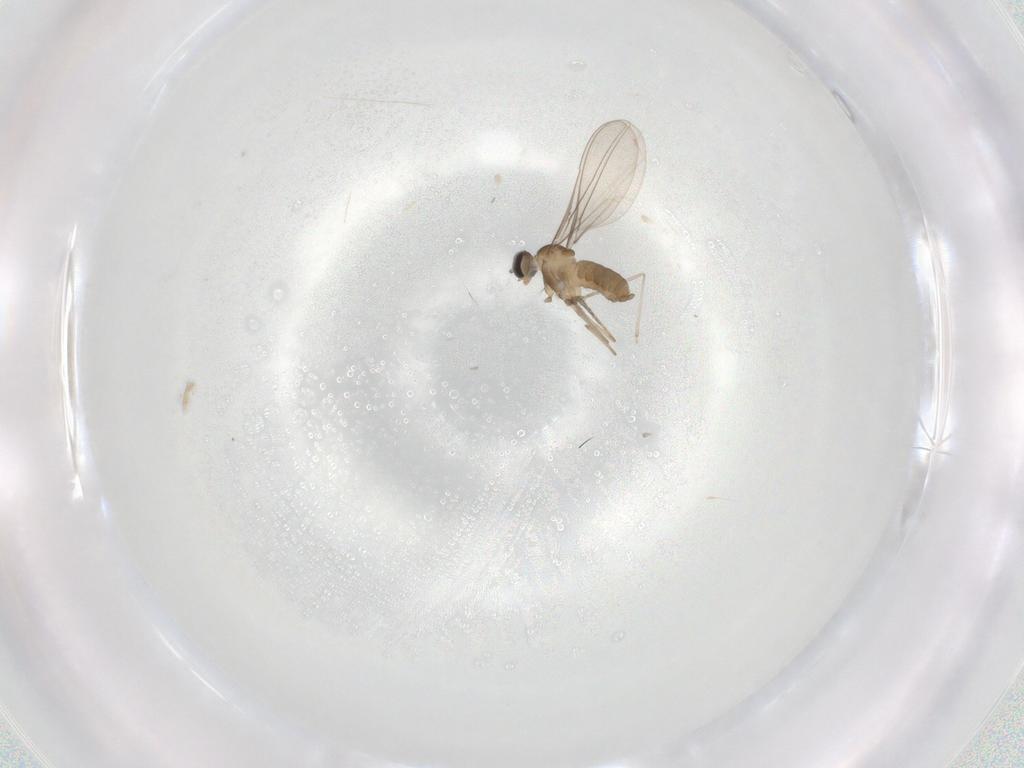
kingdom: Animalia
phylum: Arthropoda
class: Insecta
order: Diptera
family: Cecidomyiidae
